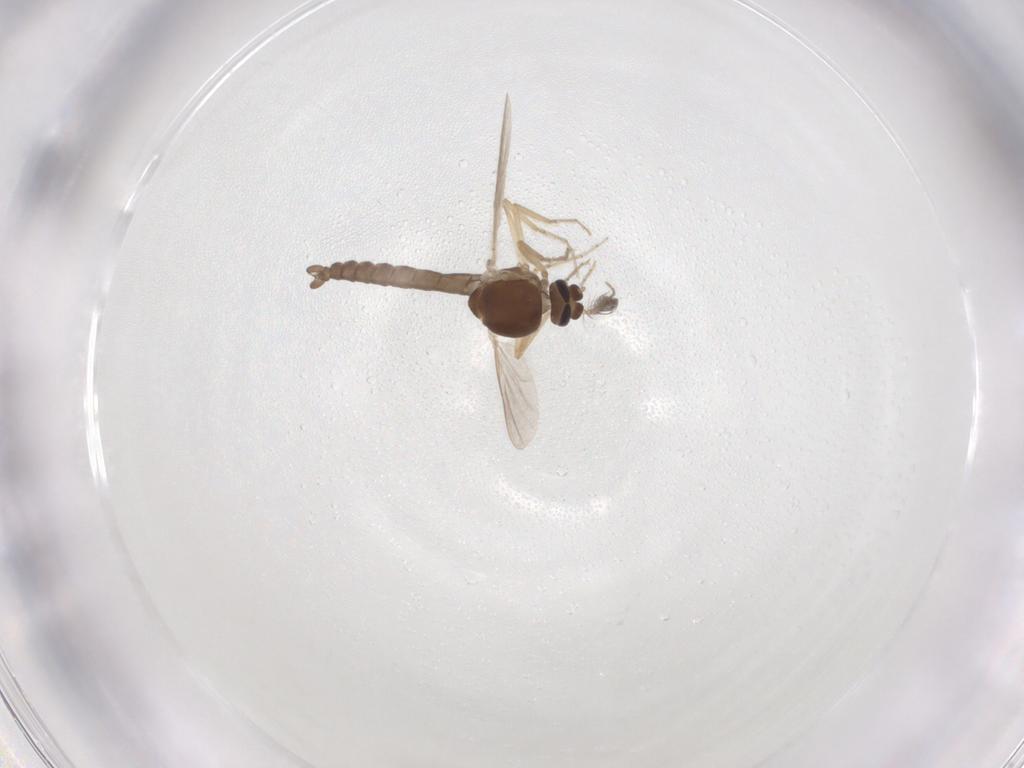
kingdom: Animalia
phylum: Arthropoda
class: Insecta
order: Diptera
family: Ceratopogonidae
